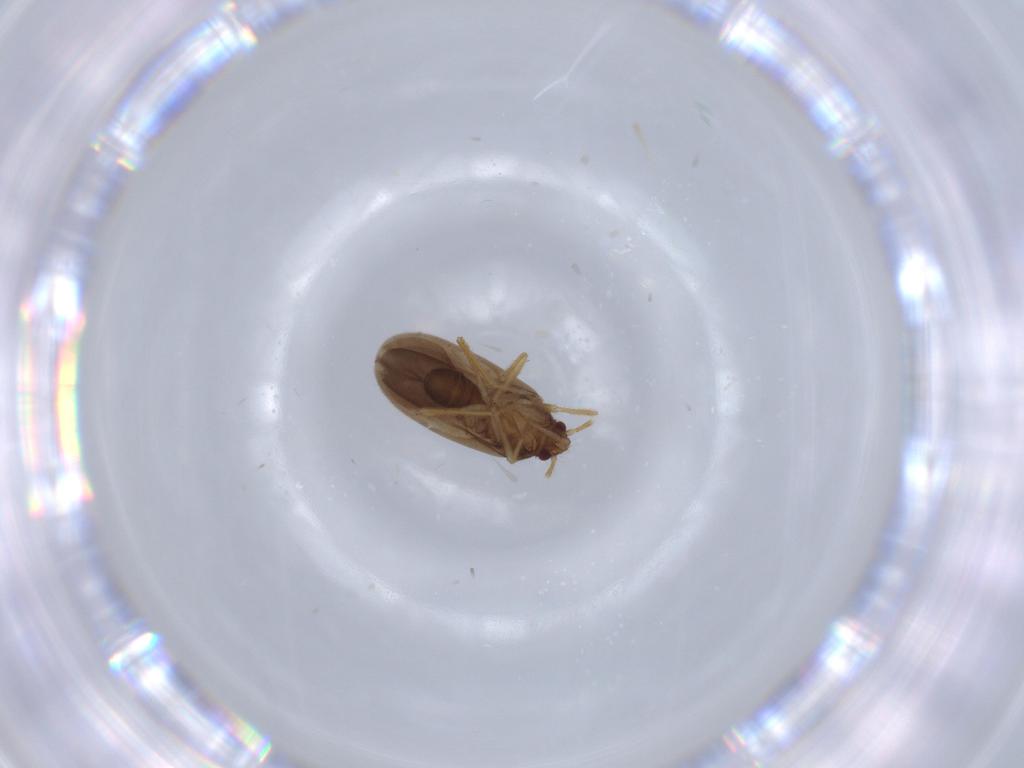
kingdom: Animalia
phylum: Arthropoda
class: Insecta
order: Hemiptera
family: Ceratocombidae
